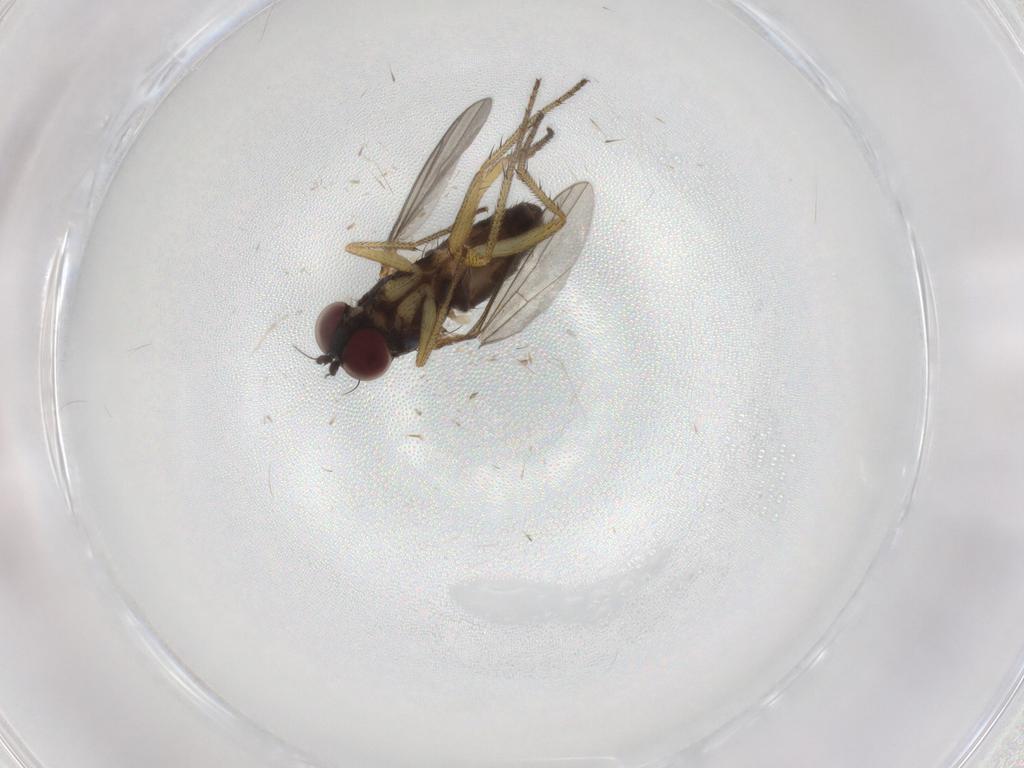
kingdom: Animalia
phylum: Arthropoda
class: Insecta
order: Diptera
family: Dolichopodidae
